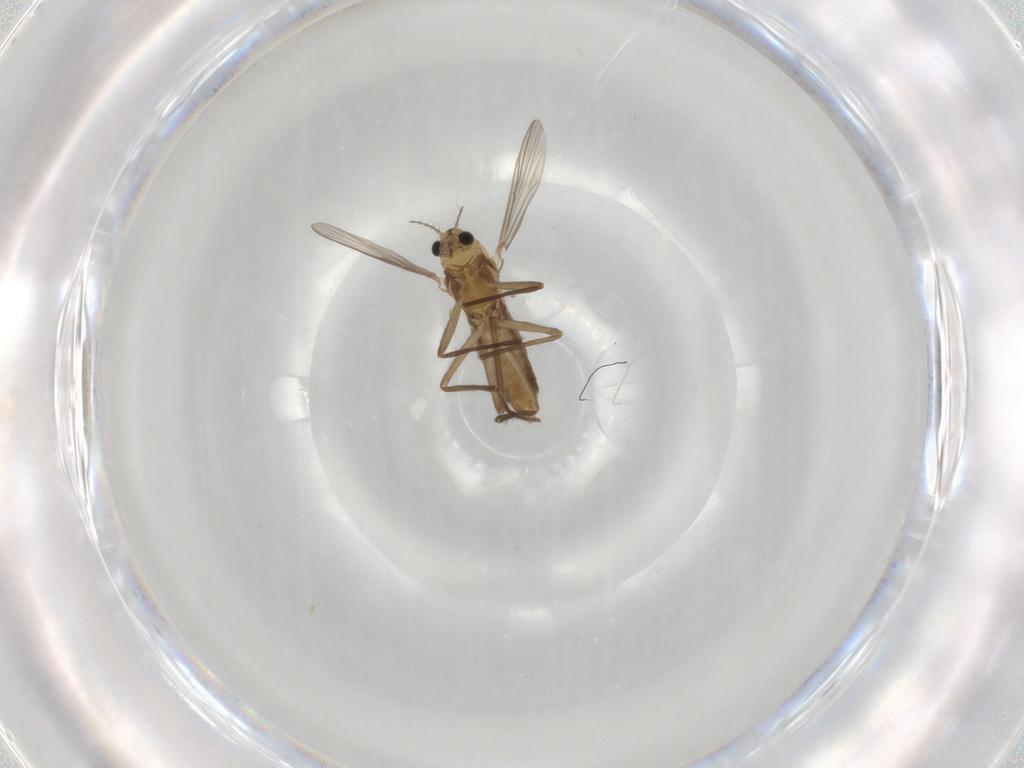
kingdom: Animalia
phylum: Arthropoda
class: Insecta
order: Diptera
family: Chironomidae
